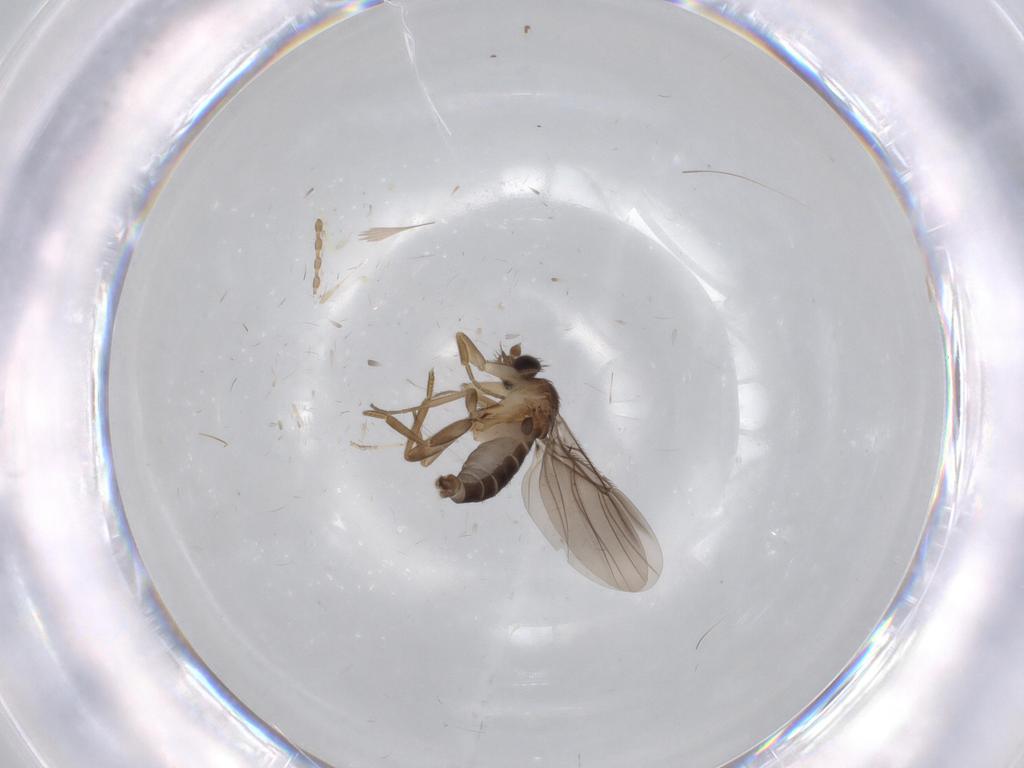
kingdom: Animalia
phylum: Arthropoda
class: Insecta
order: Diptera
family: Phoridae
